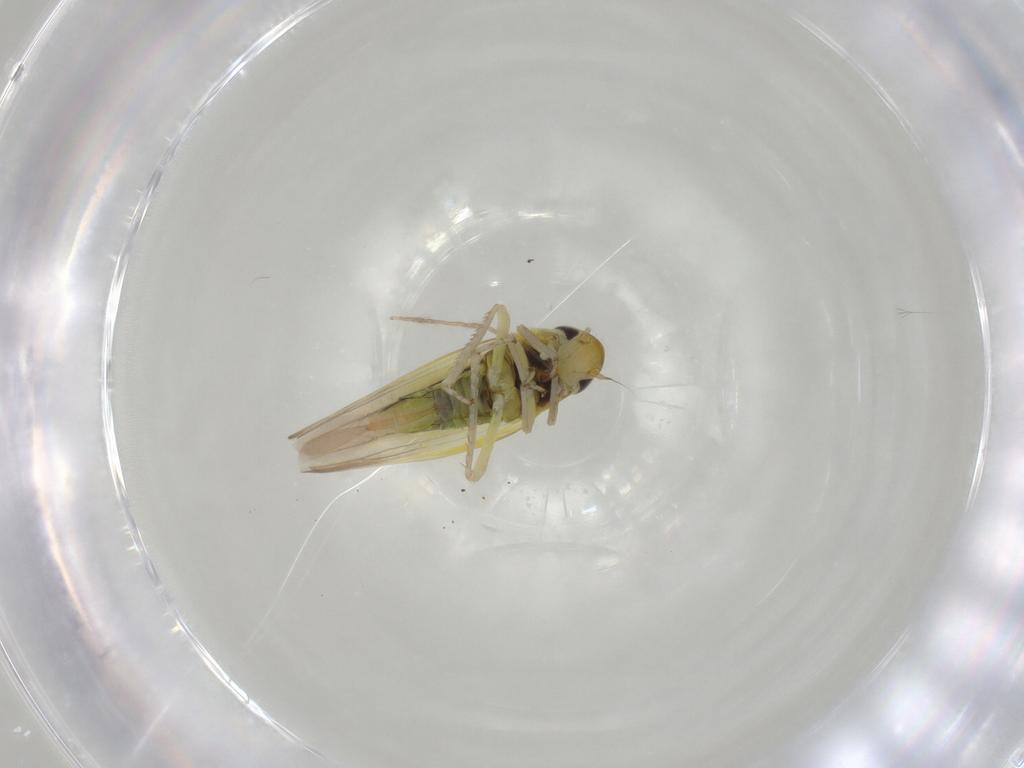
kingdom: Animalia
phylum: Arthropoda
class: Insecta
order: Hemiptera
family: Cicadellidae
